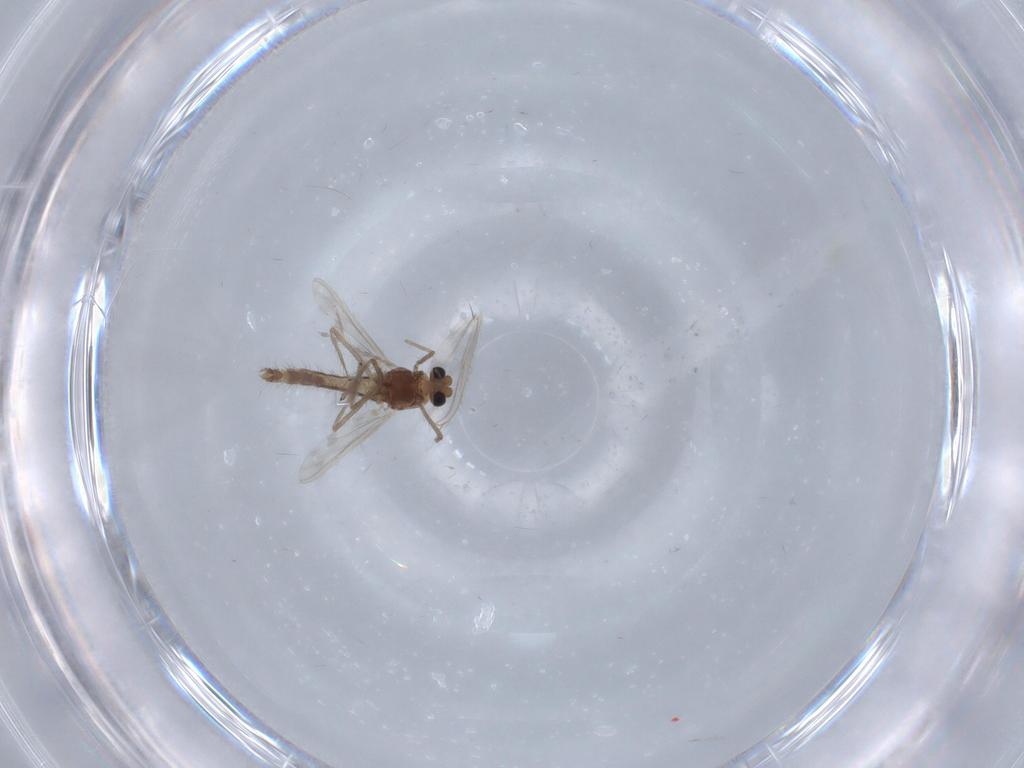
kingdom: Animalia
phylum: Arthropoda
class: Insecta
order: Diptera
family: Chironomidae
